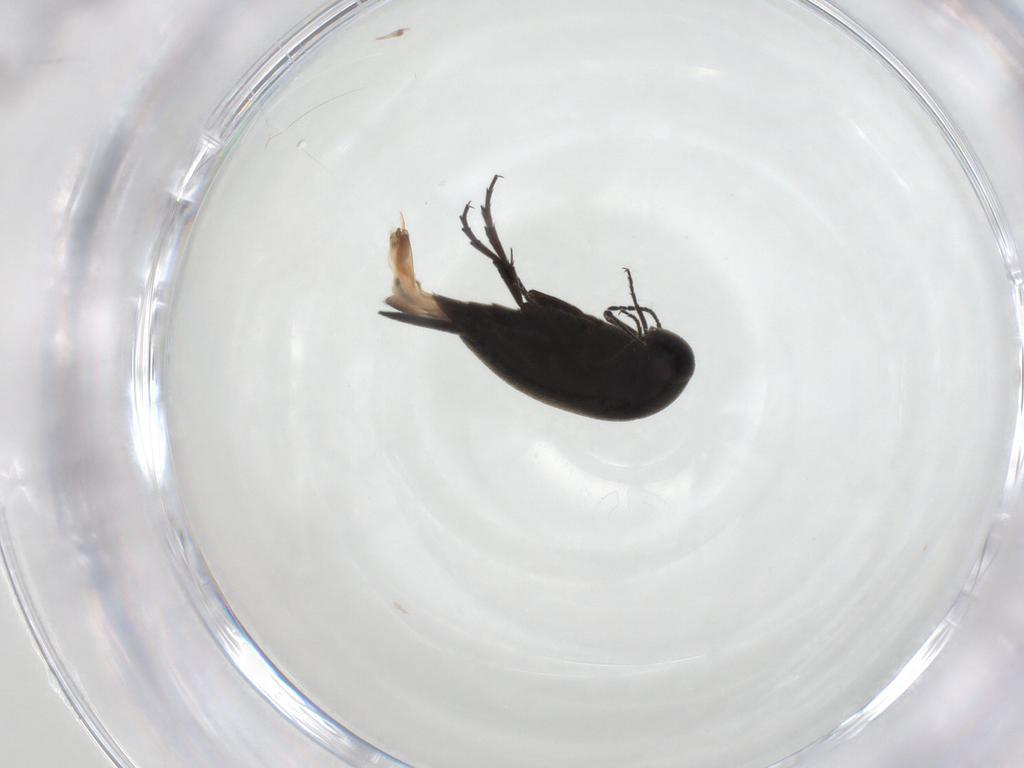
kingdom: Animalia
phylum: Arthropoda
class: Insecta
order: Coleoptera
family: Mordellidae
